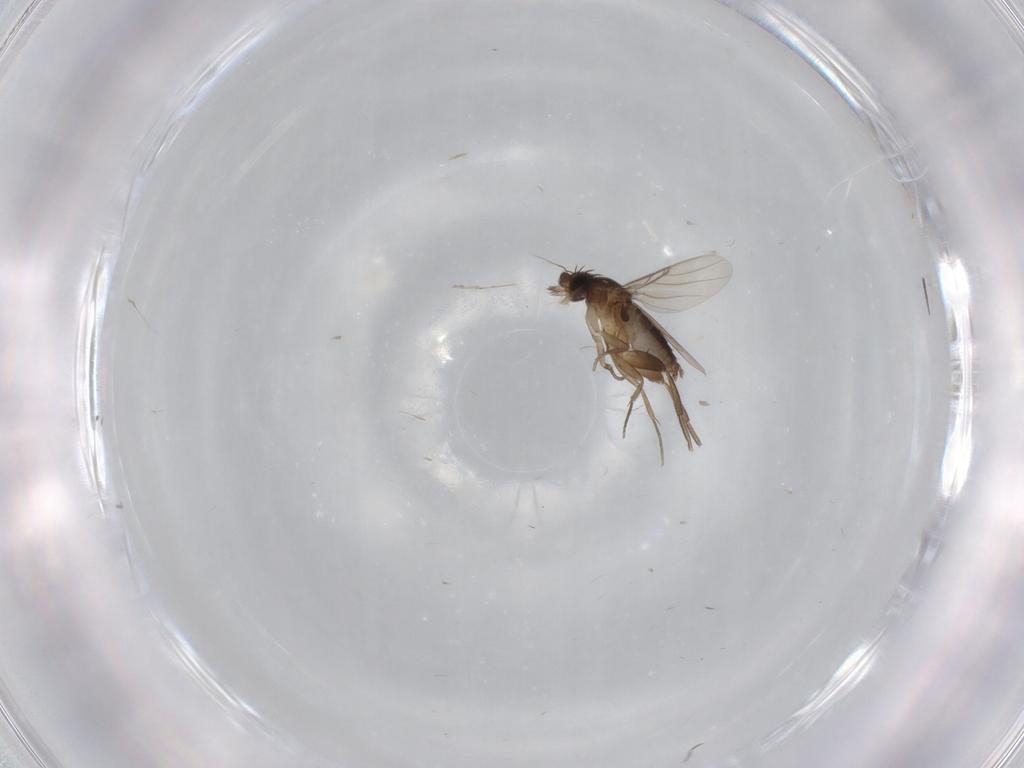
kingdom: Animalia
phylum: Arthropoda
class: Insecta
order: Diptera
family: Phoridae
